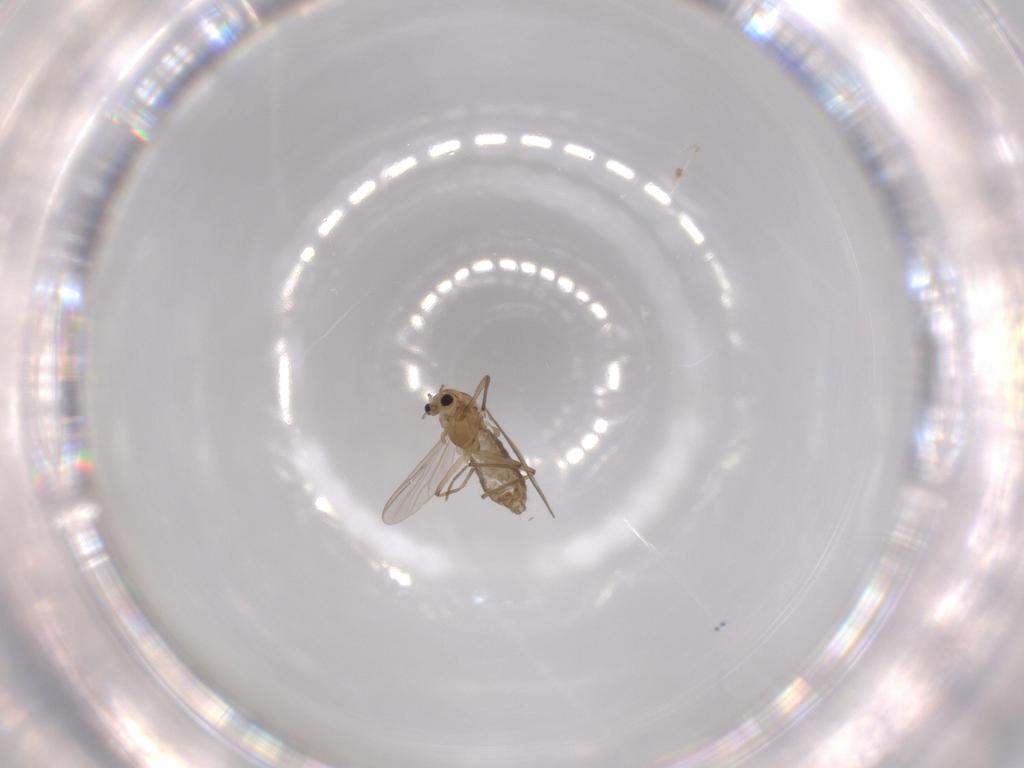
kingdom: Animalia
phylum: Arthropoda
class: Insecta
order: Diptera
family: Chironomidae
